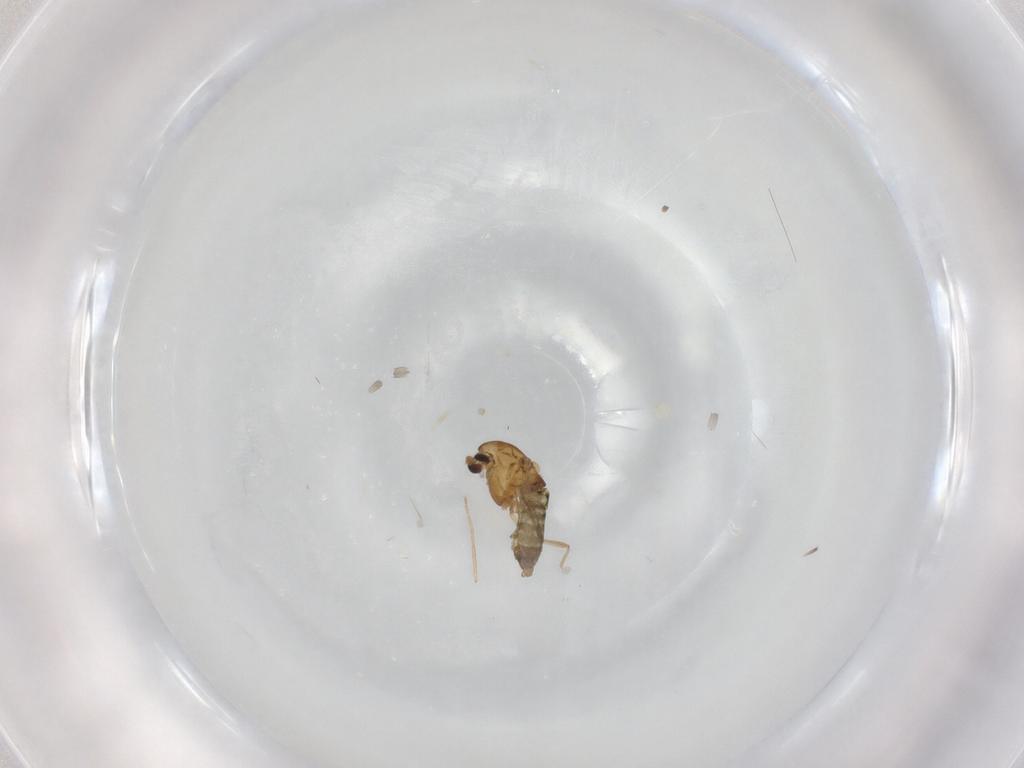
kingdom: Animalia
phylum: Arthropoda
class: Insecta
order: Diptera
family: Chironomidae
